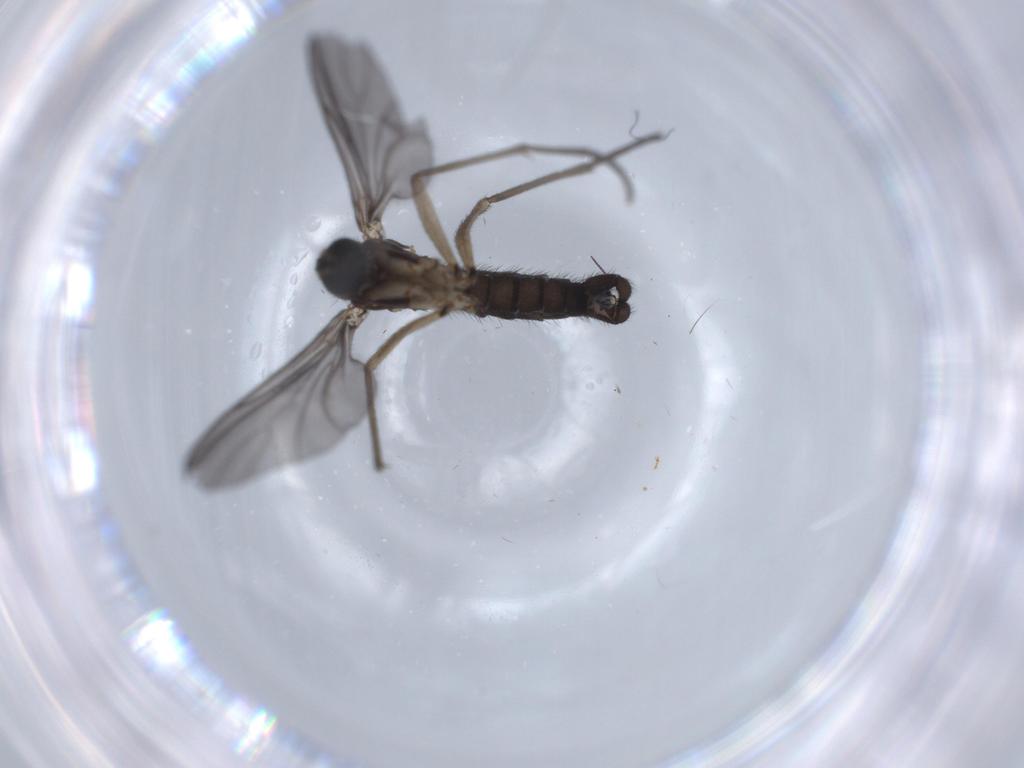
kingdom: Animalia
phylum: Arthropoda
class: Insecta
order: Diptera
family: Sciaridae
